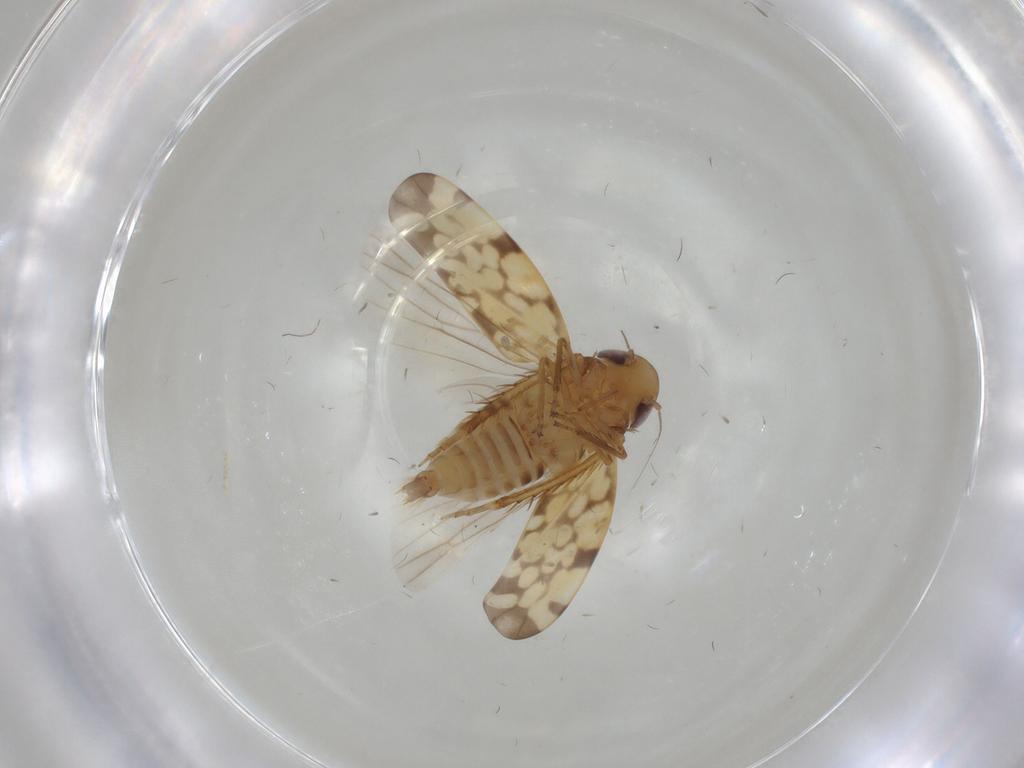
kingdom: Animalia
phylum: Arthropoda
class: Insecta
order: Hemiptera
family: Cicadellidae
